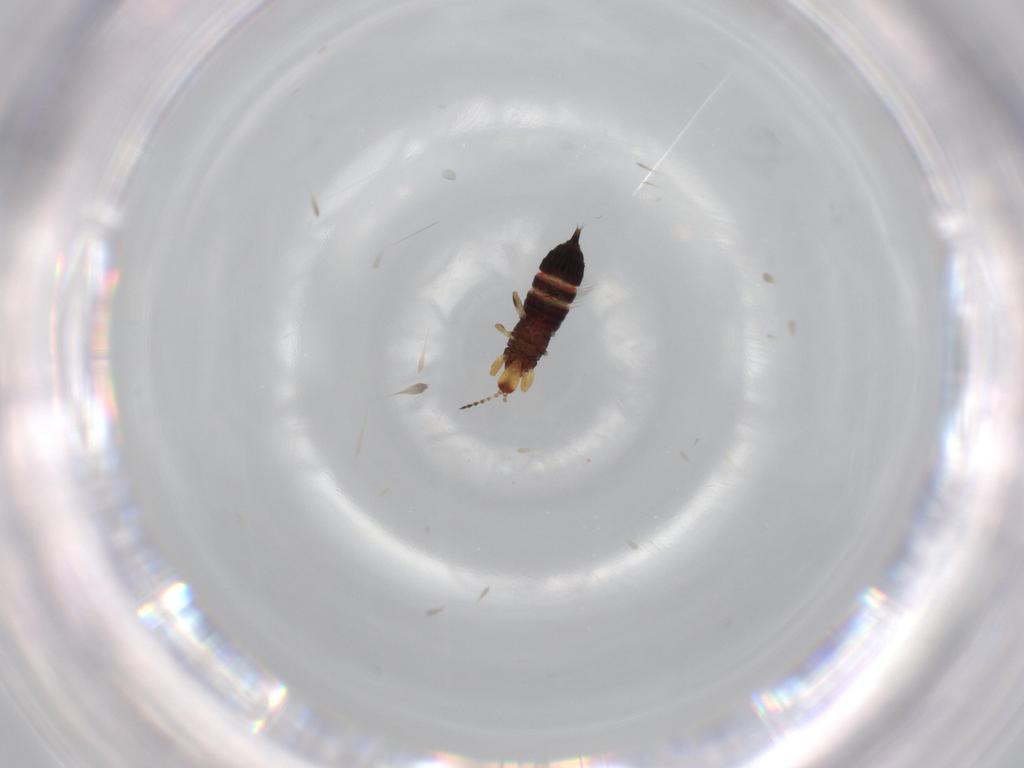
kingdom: Animalia
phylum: Arthropoda
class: Insecta
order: Thysanoptera
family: Phlaeothripidae
